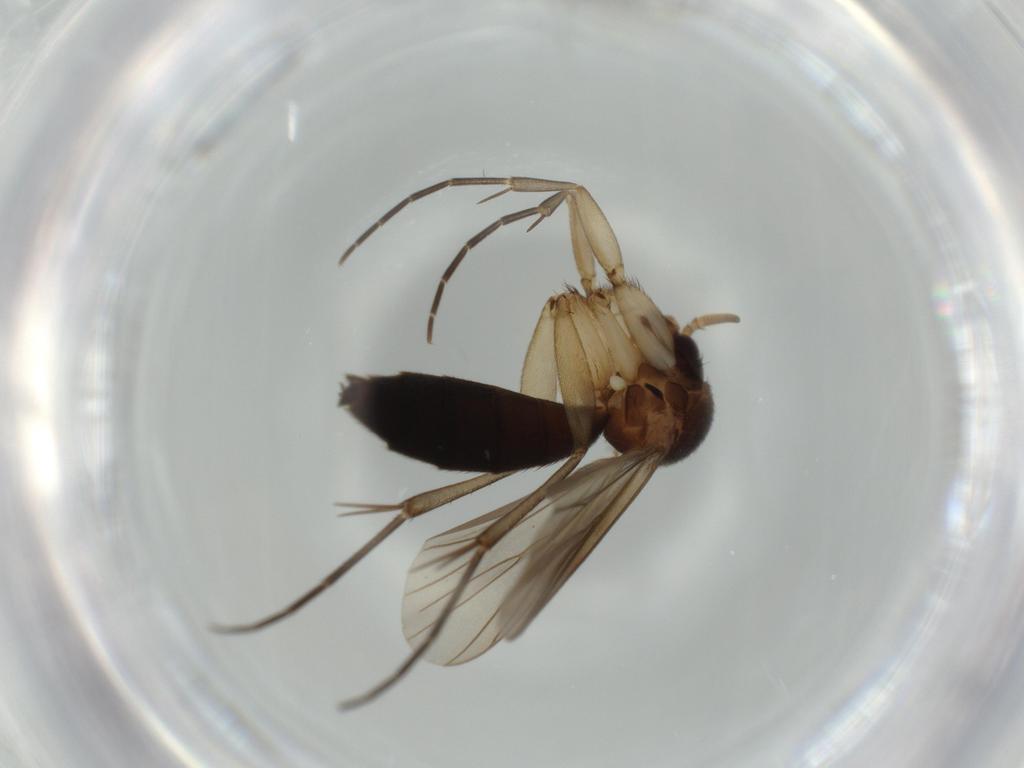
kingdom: Animalia
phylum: Arthropoda
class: Insecta
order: Diptera
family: Mycetophilidae
